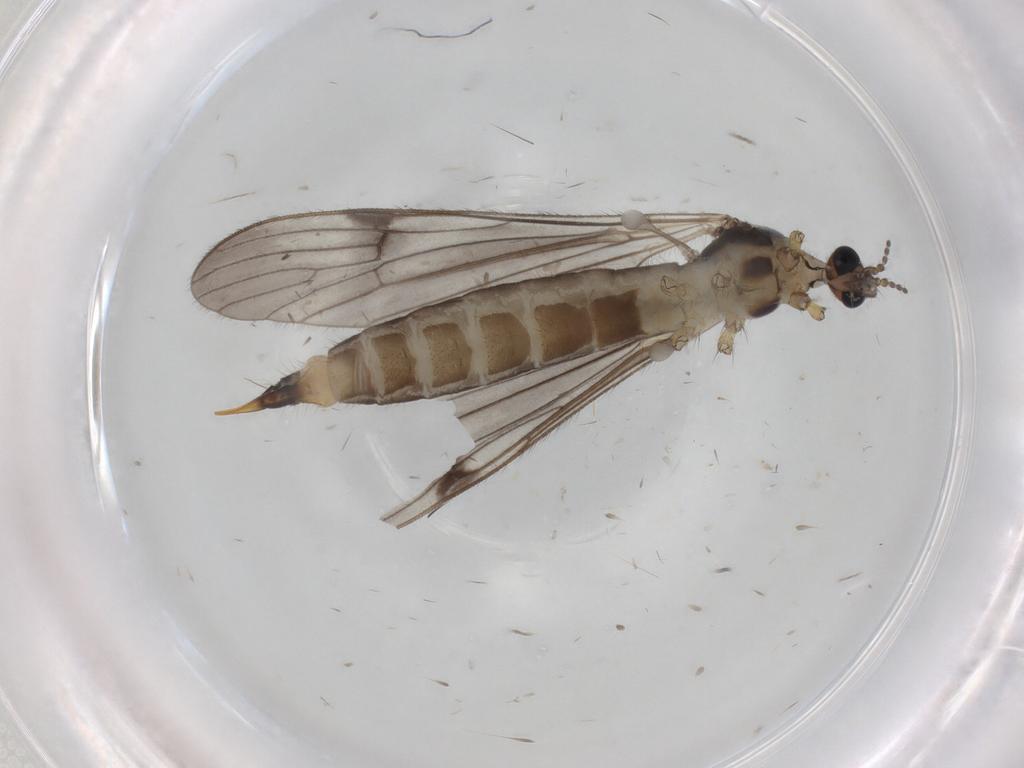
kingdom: Animalia
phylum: Arthropoda
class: Insecta
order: Diptera
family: Limoniidae
